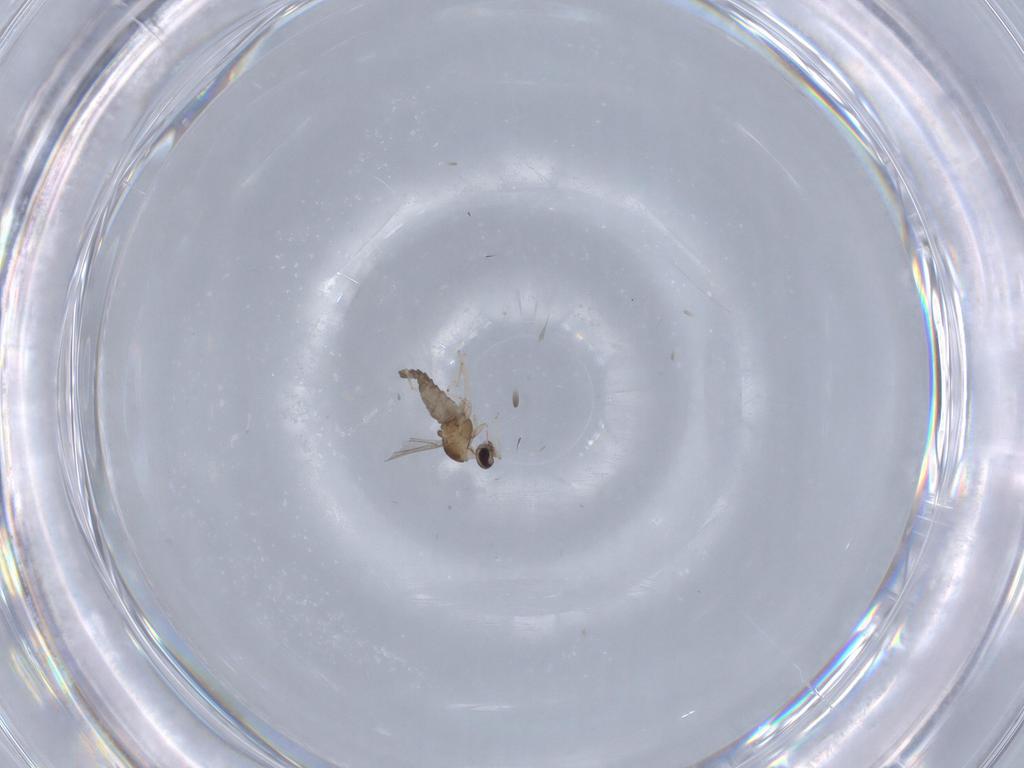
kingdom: Animalia
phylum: Arthropoda
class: Insecta
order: Diptera
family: Cecidomyiidae
